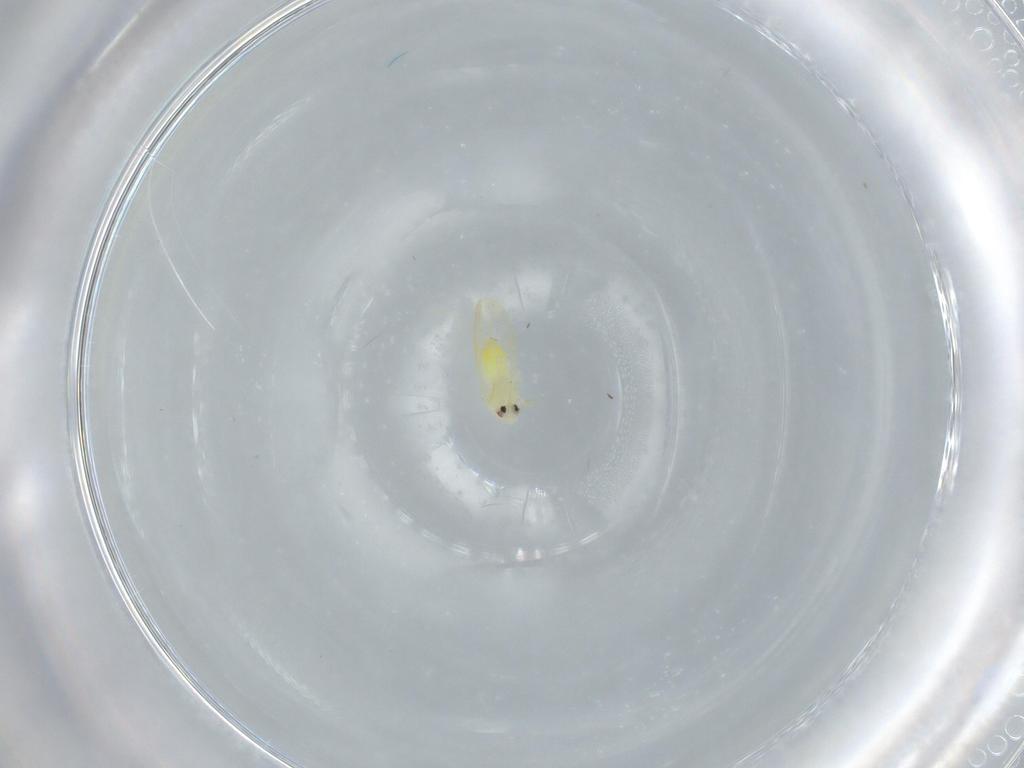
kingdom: Animalia
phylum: Arthropoda
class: Insecta
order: Hemiptera
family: Aleyrodidae
